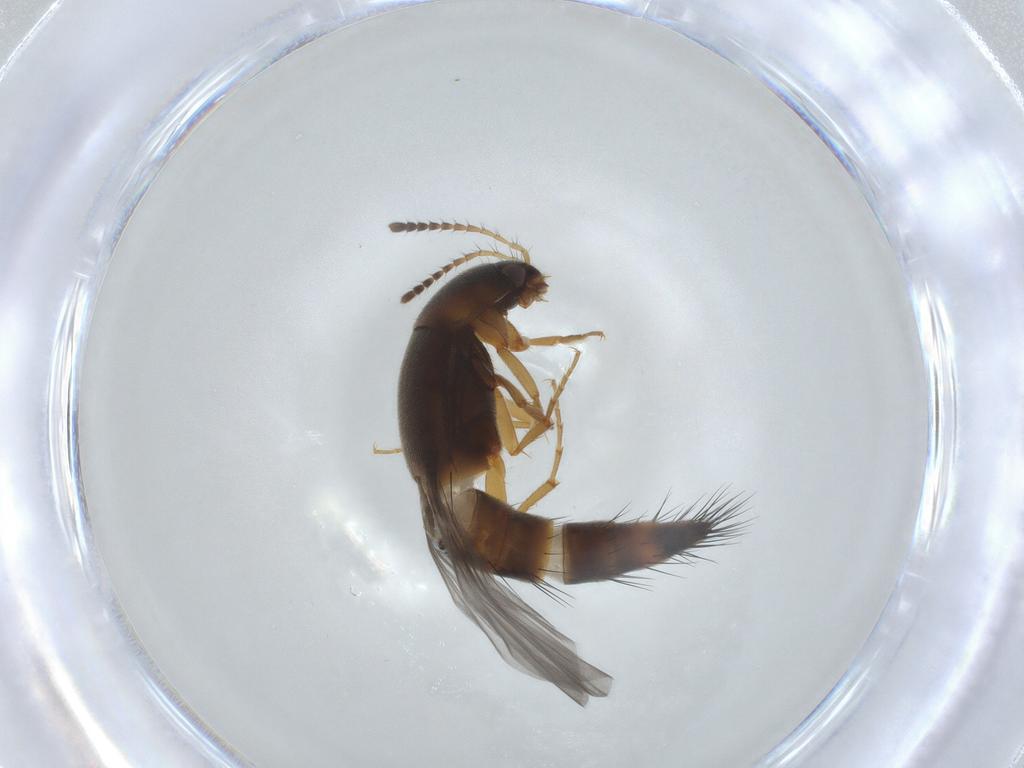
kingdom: Animalia
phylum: Arthropoda
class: Insecta
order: Coleoptera
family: Staphylinidae
